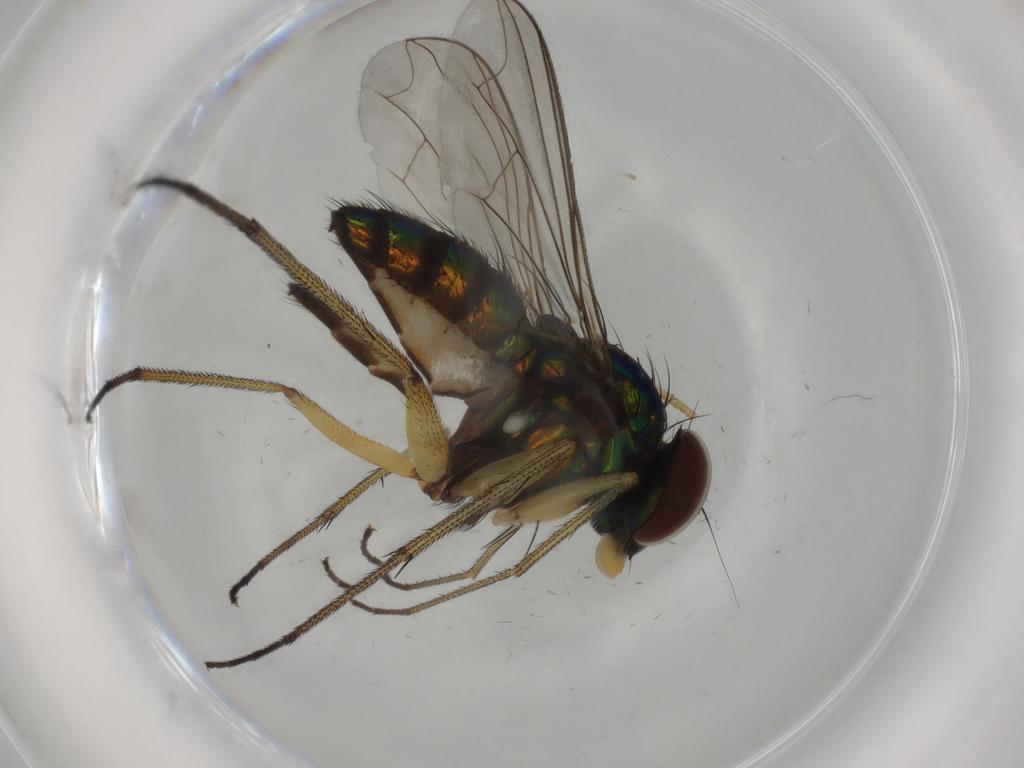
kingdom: Animalia
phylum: Arthropoda
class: Insecta
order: Diptera
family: Dolichopodidae
